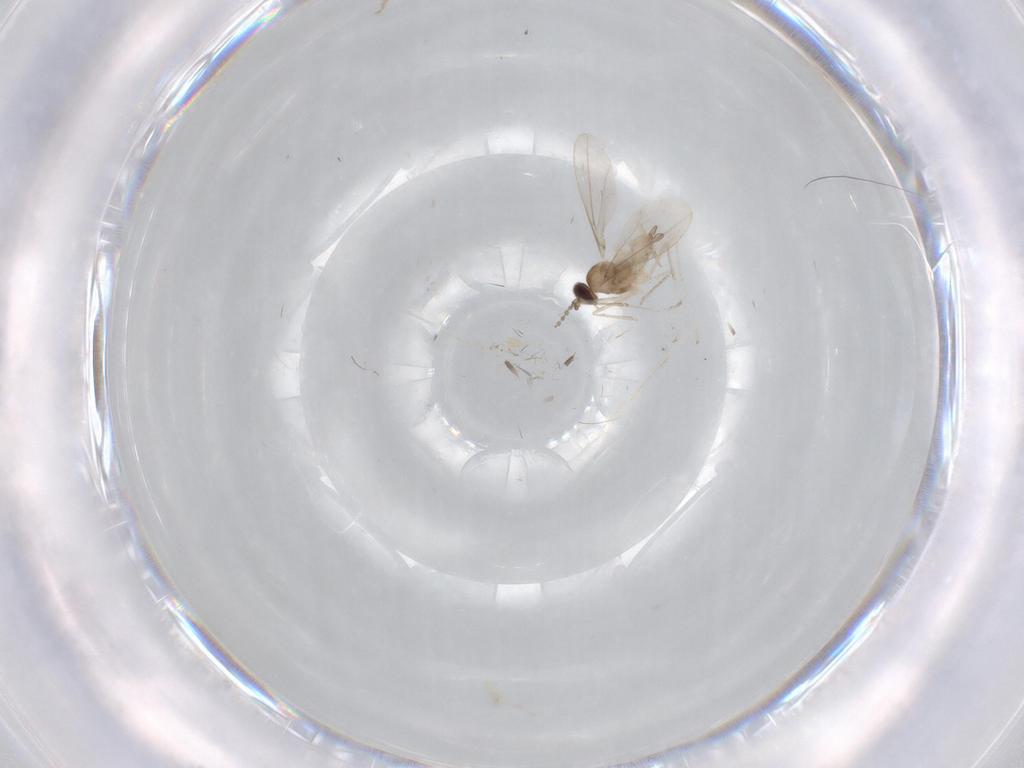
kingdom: Animalia
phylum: Arthropoda
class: Insecta
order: Diptera
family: Cecidomyiidae
